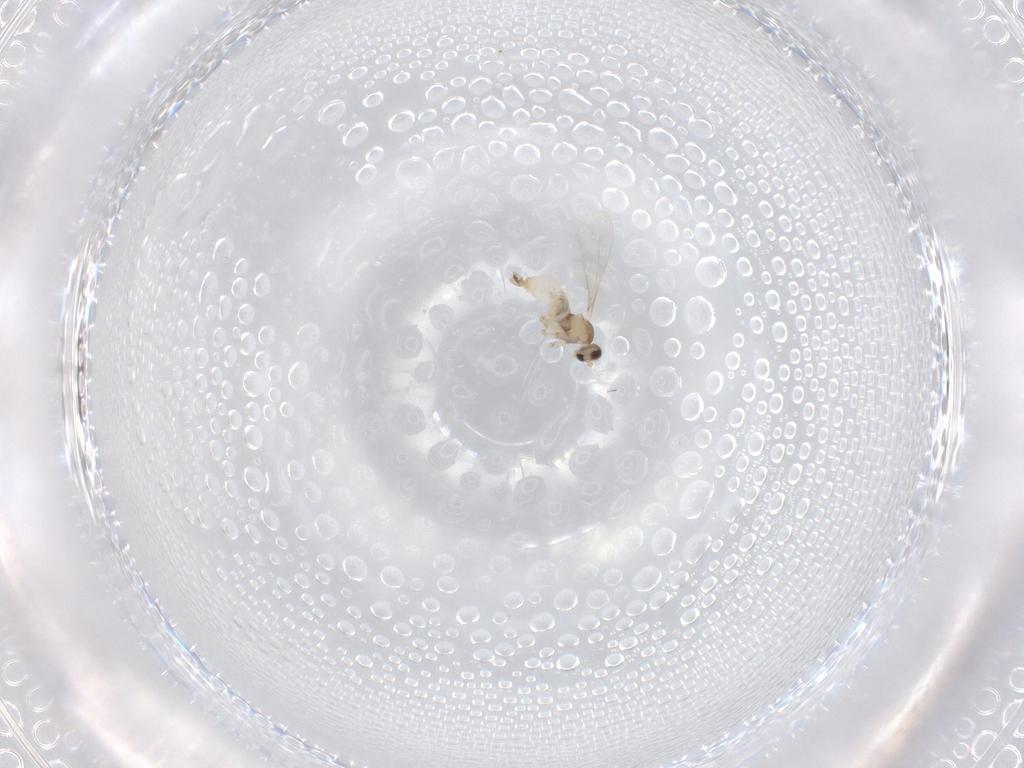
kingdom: Animalia
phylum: Arthropoda
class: Insecta
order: Diptera
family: Cecidomyiidae
